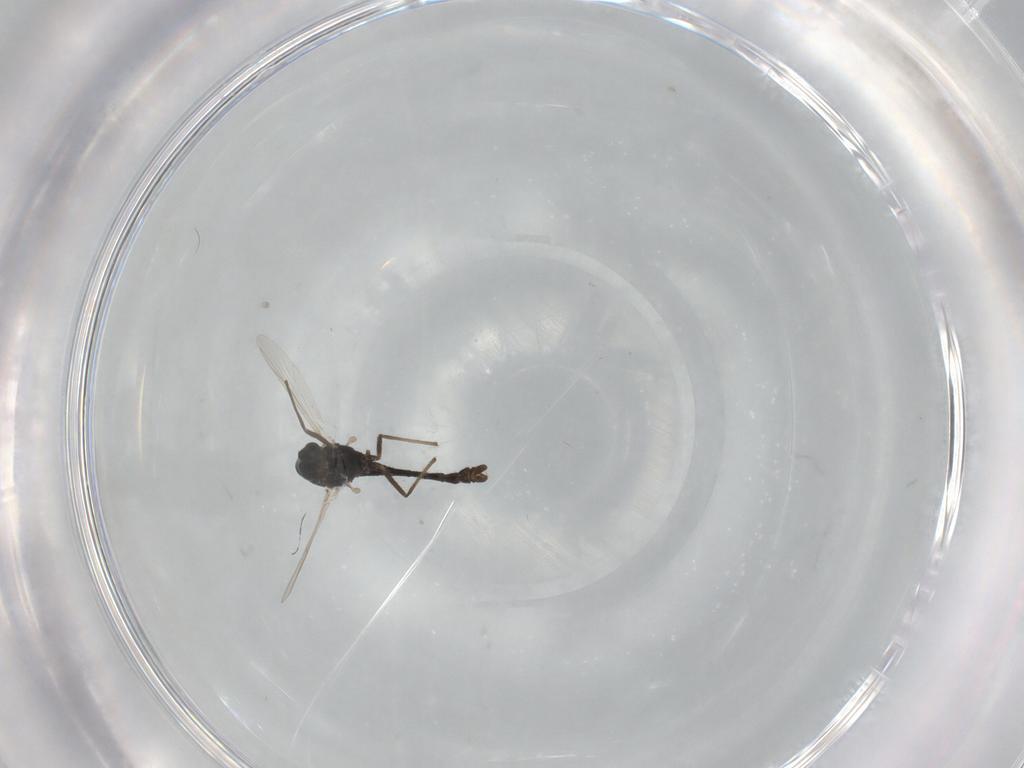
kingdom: Animalia
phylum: Arthropoda
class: Insecta
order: Diptera
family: Chironomidae
